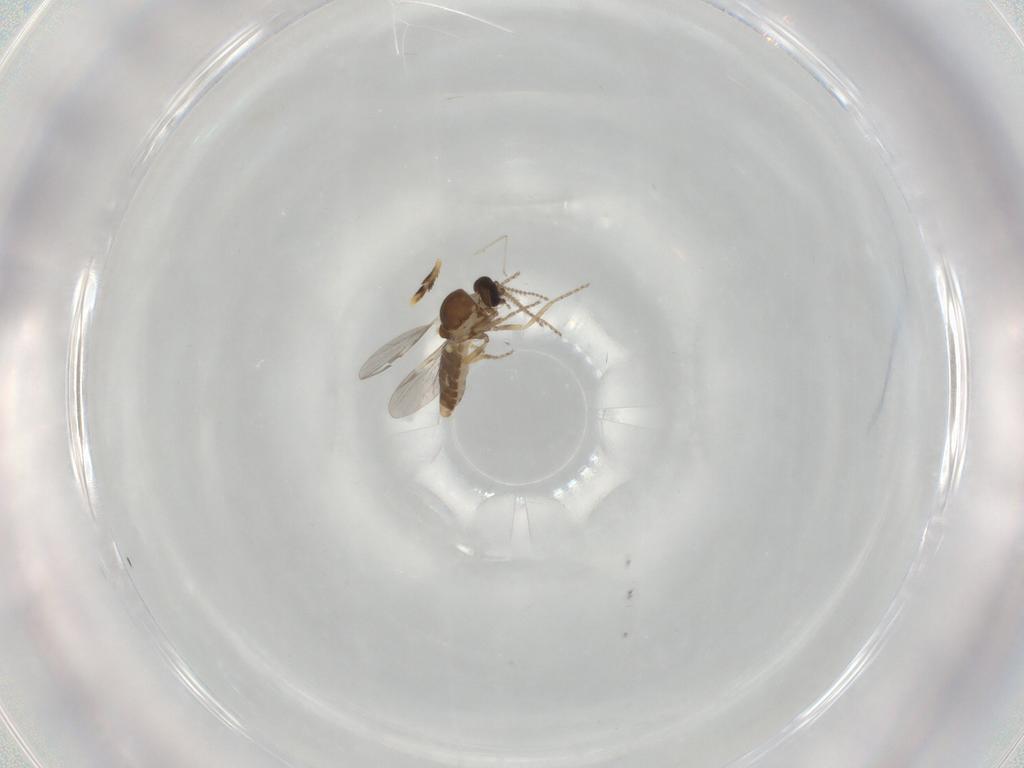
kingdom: Animalia
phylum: Arthropoda
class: Insecta
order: Diptera
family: Ceratopogonidae
